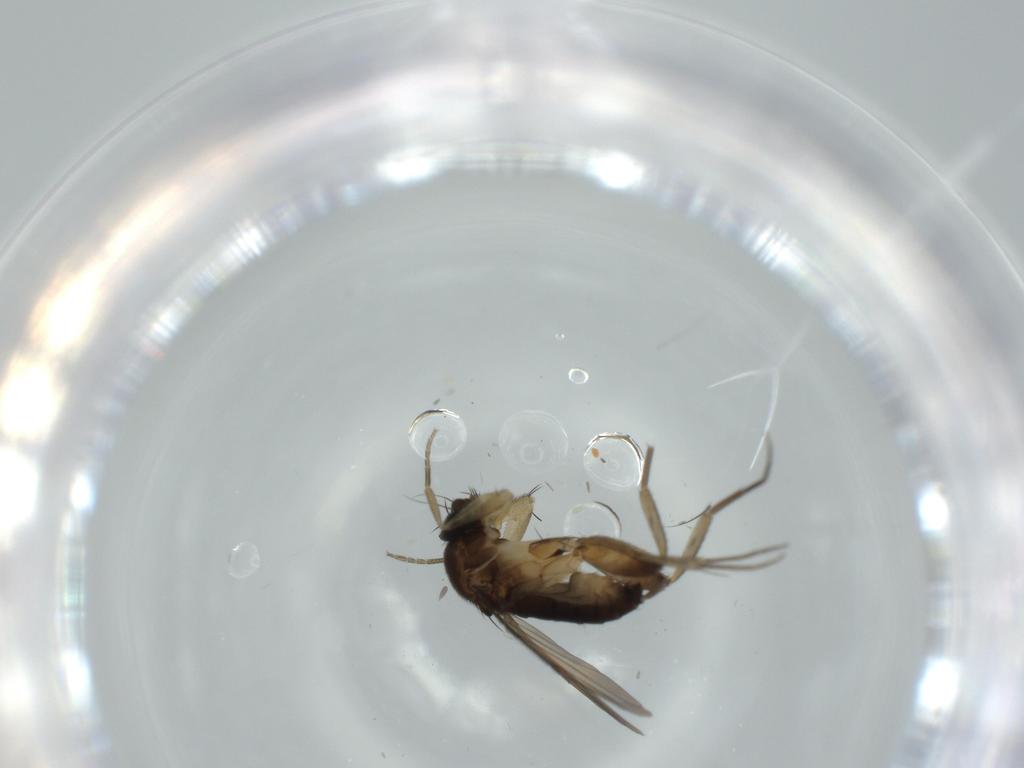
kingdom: Animalia
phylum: Arthropoda
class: Insecta
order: Diptera
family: Phoridae
